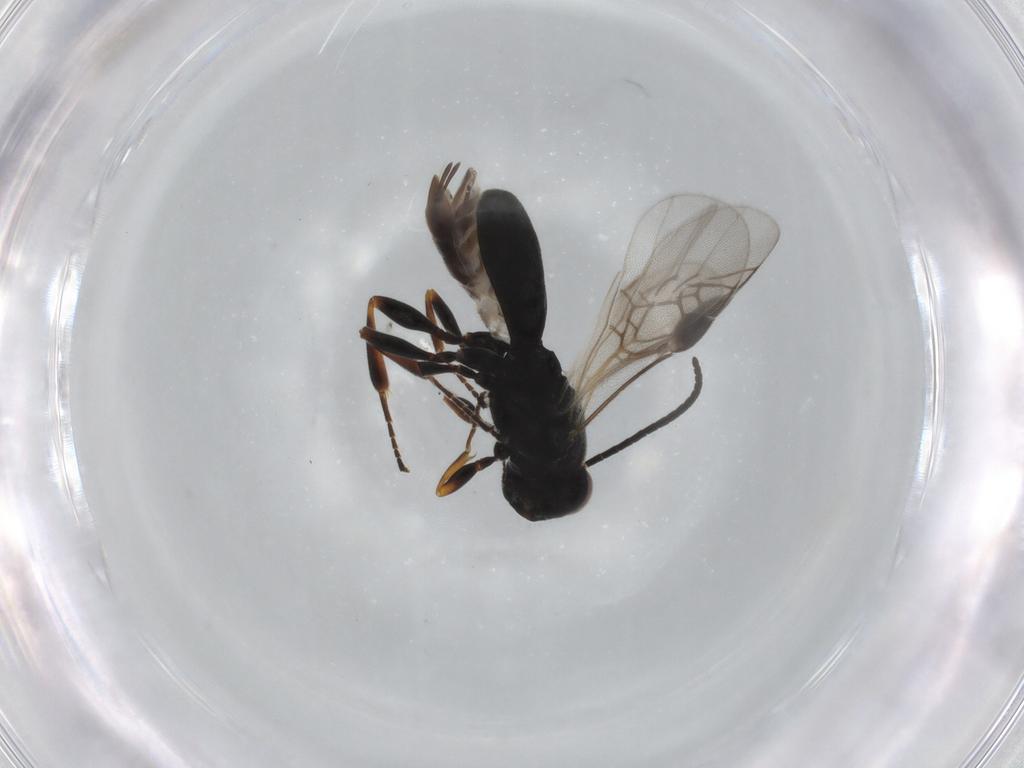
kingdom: Animalia
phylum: Arthropoda
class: Insecta
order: Hymenoptera
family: Braconidae
